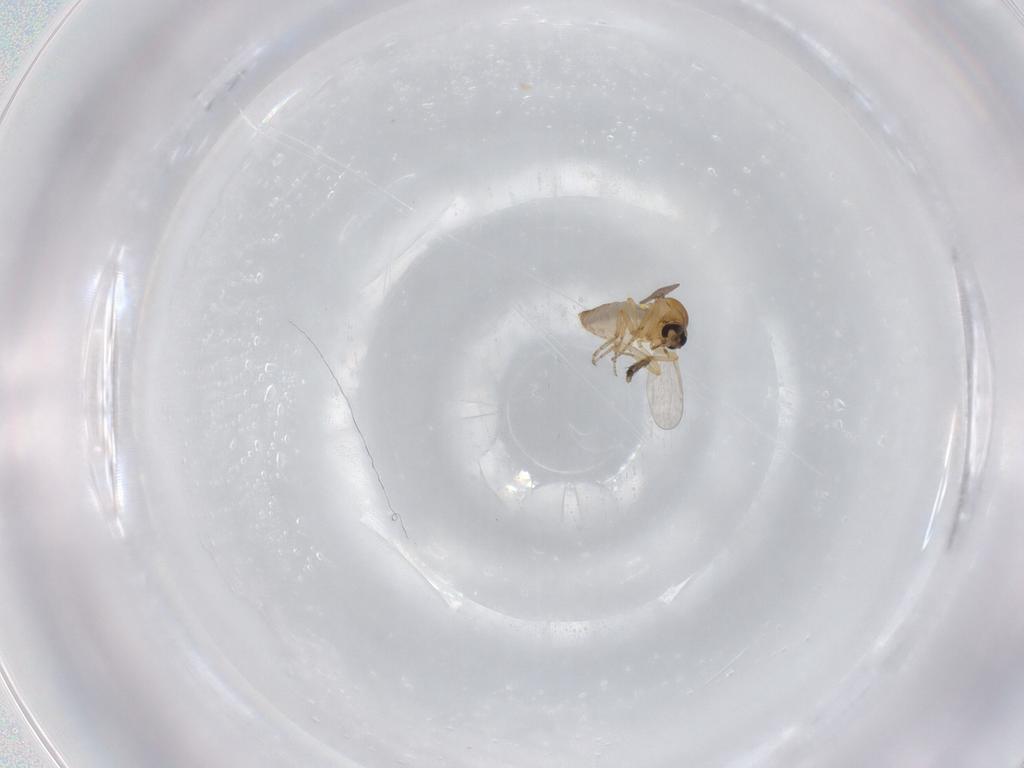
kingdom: Animalia
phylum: Arthropoda
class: Insecta
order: Diptera
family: Ceratopogonidae
